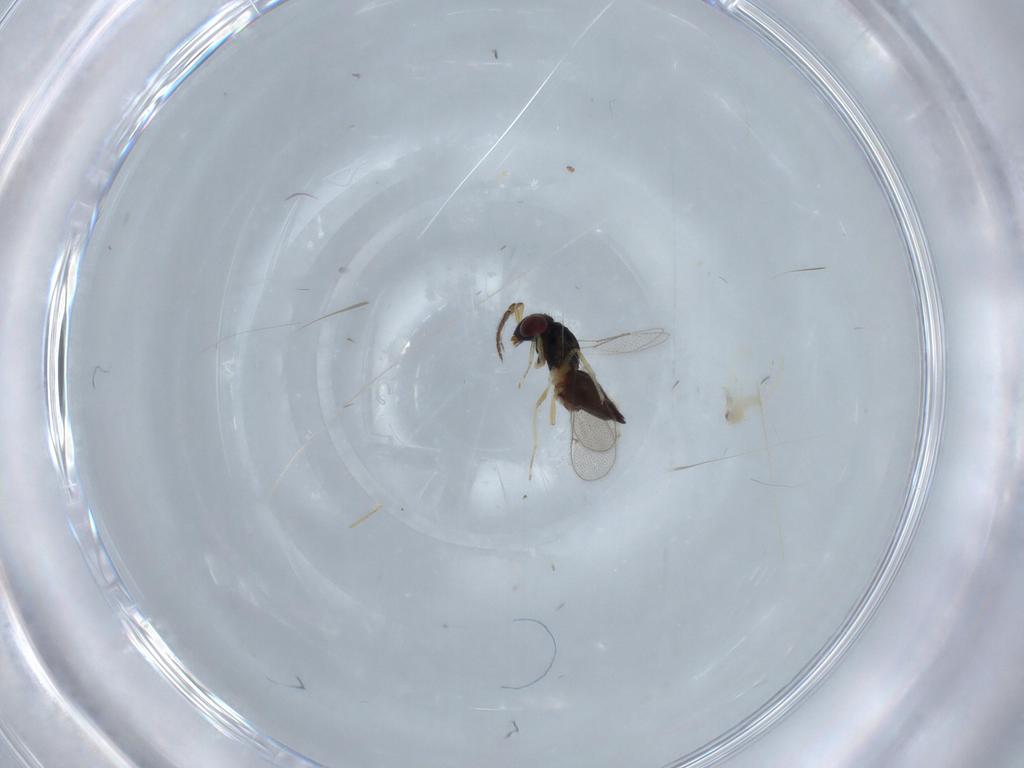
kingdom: Animalia
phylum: Arthropoda
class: Insecta
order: Hymenoptera
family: Eulophidae
